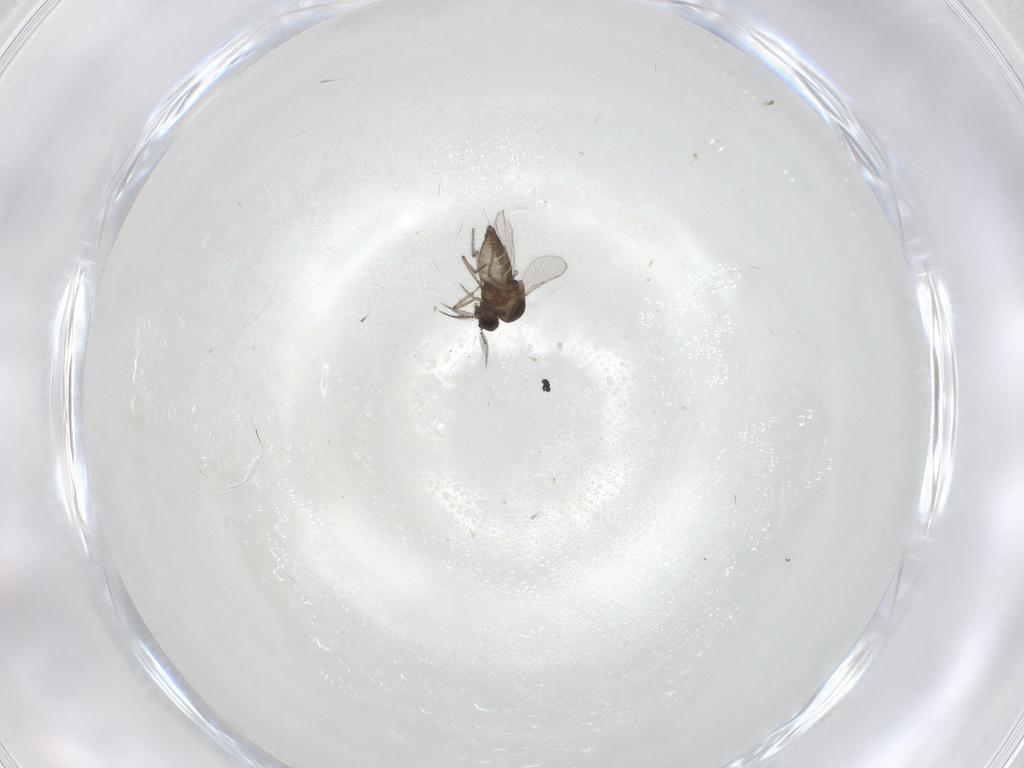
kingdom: Animalia
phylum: Arthropoda
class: Insecta
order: Diptera
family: Ceratopogonidae
